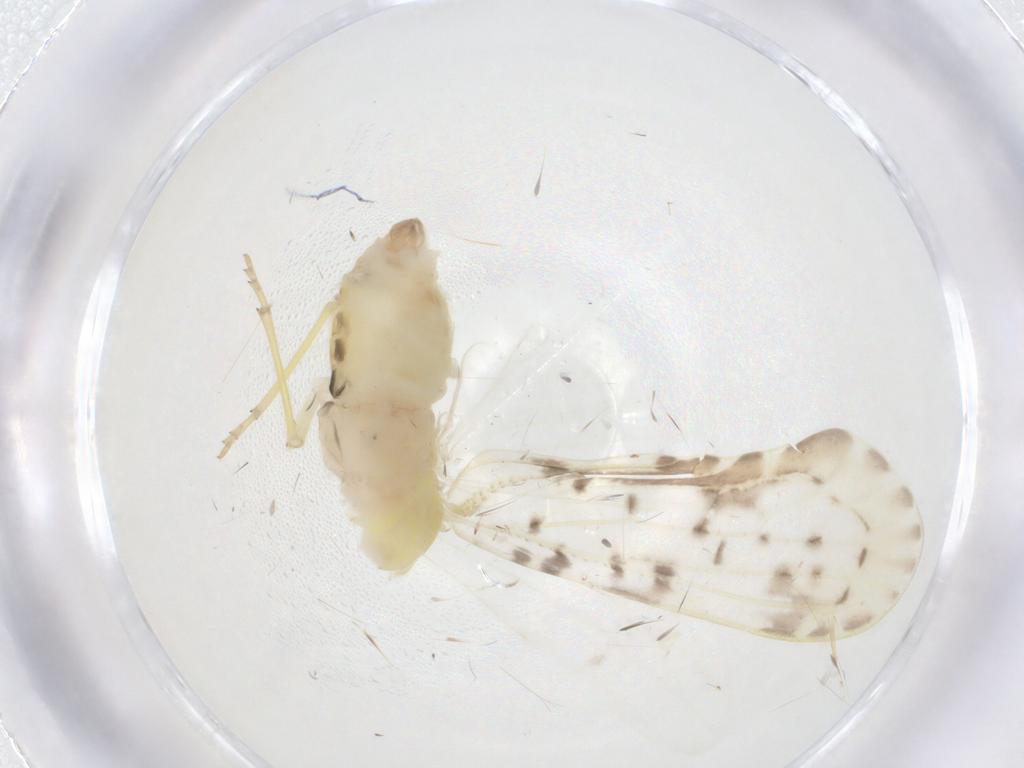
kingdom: Animalia
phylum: Arthropoda
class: Insecta
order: Hemiptera
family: Derbidae
